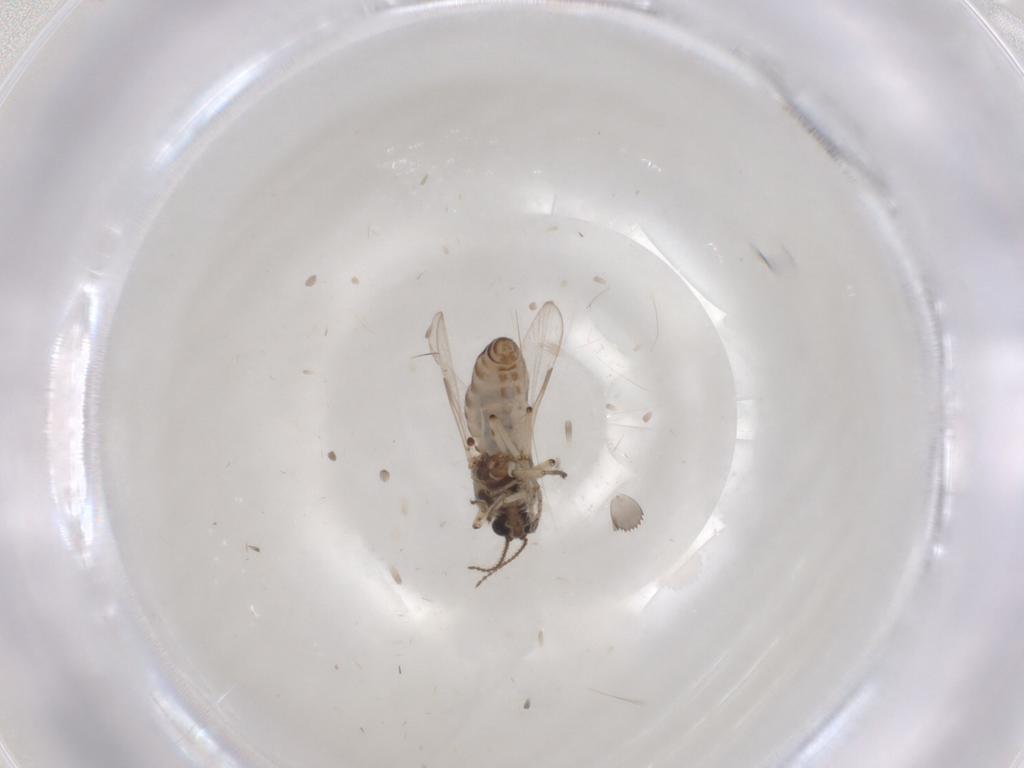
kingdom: Animalia
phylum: Arthropoda
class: Insecta
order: Diptera
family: Ceratopogonidae
